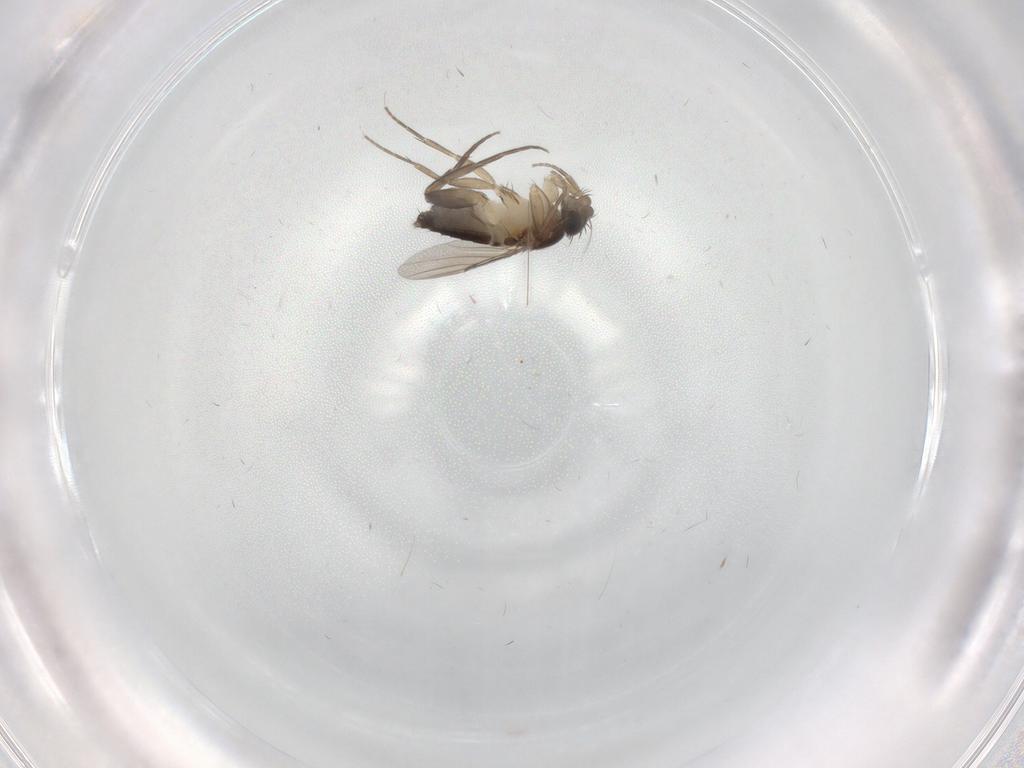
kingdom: Animalia
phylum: Arthropoda
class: Insecta
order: Diptera
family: Phoridae
